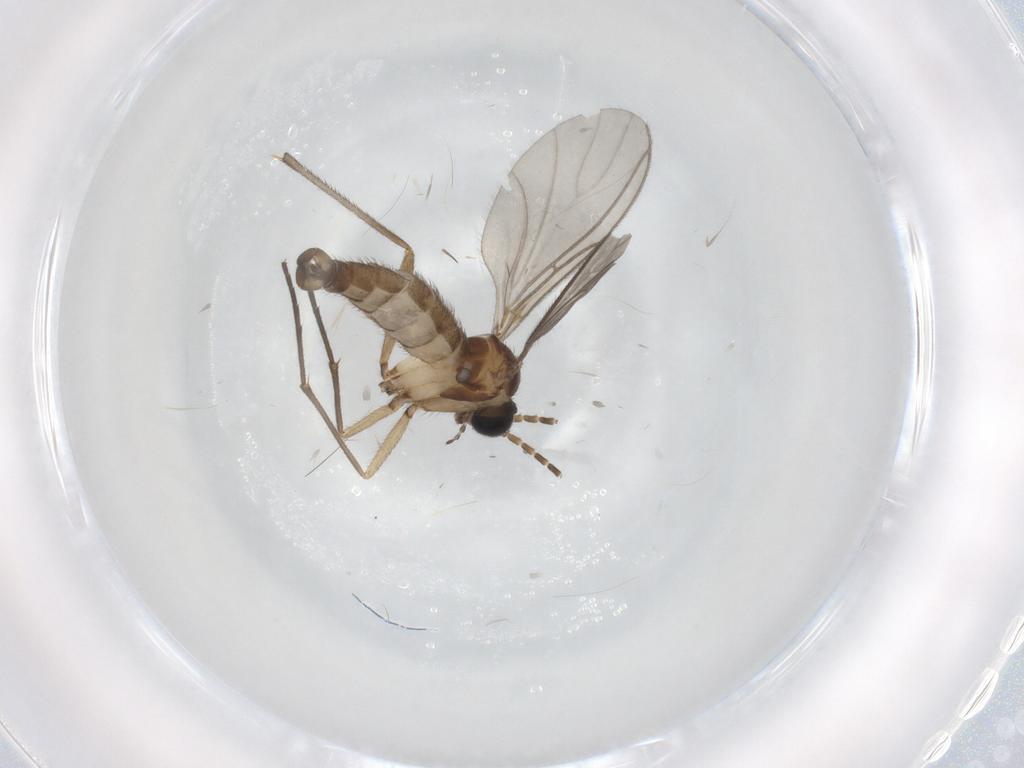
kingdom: Animalia
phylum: Arthropoda
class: Insecta
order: Diptera
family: Sciaridae
